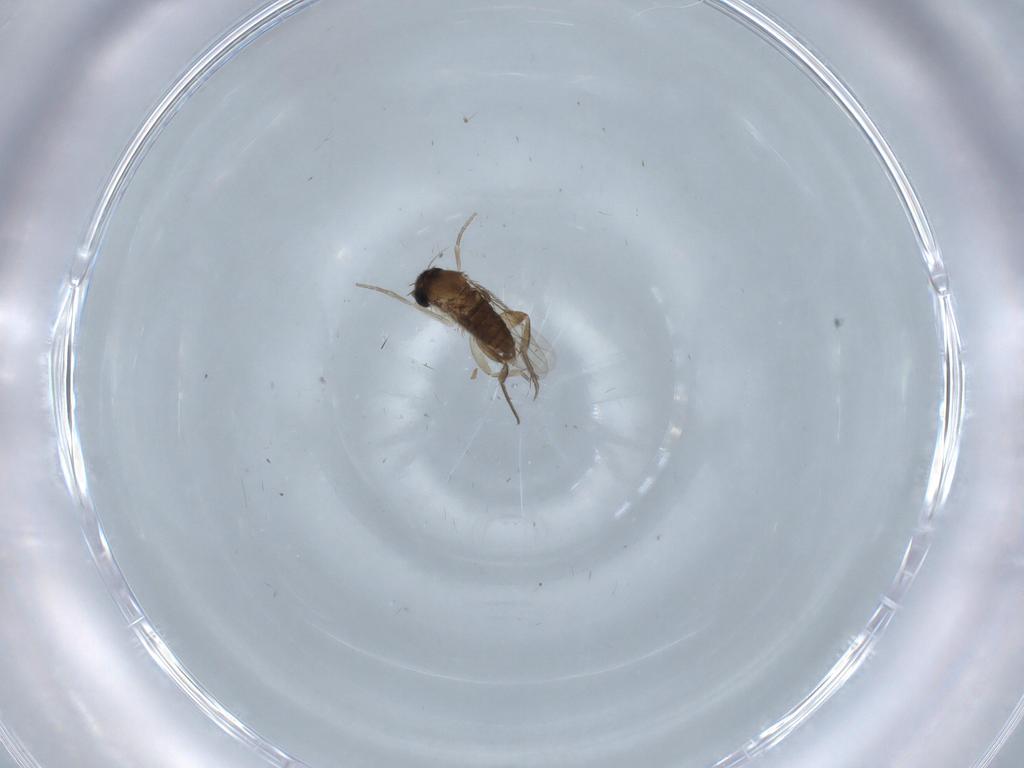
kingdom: Animalia
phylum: Arthropoda
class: Insecta
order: Diptera
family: Phoridae
